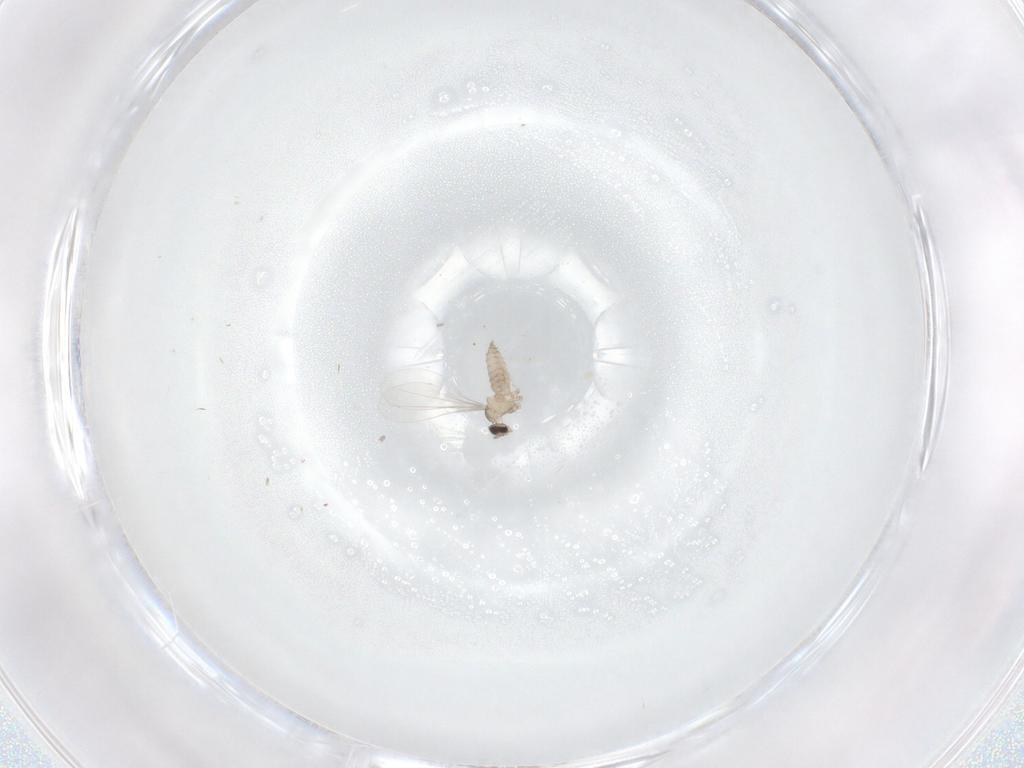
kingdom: Animalia
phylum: Arthropoda
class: Insecta
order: Diptera
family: Cecidomyiidae
